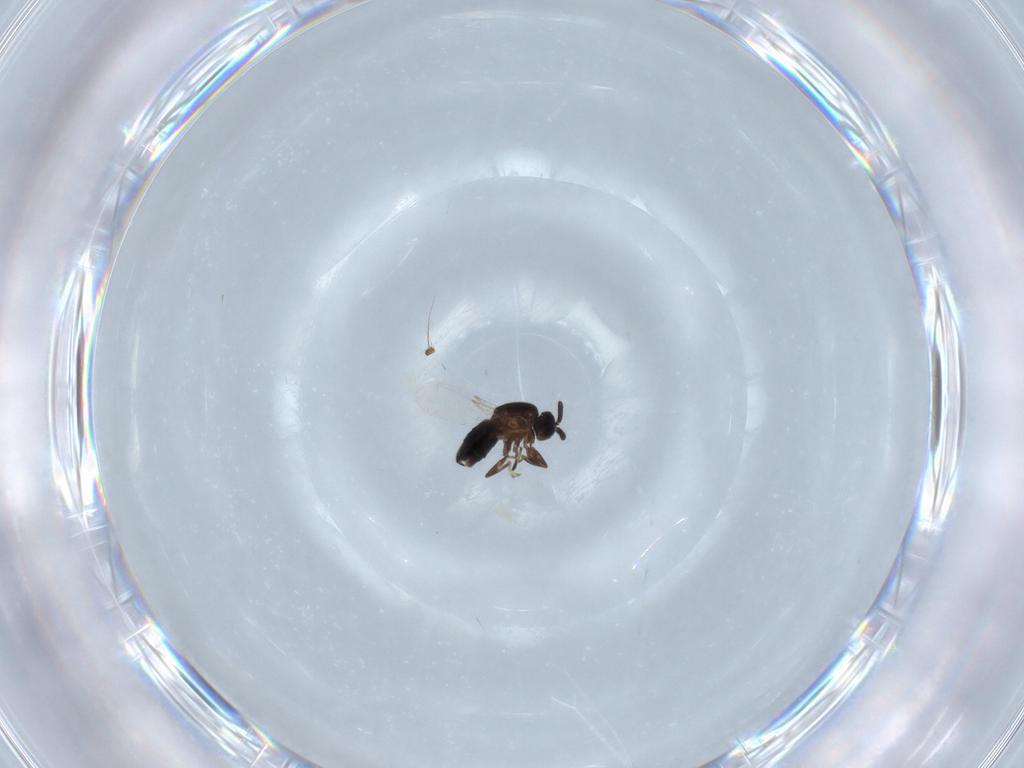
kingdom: Animalia
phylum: Arthropoda
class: Insecta
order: Diptera
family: Scatopsidae
